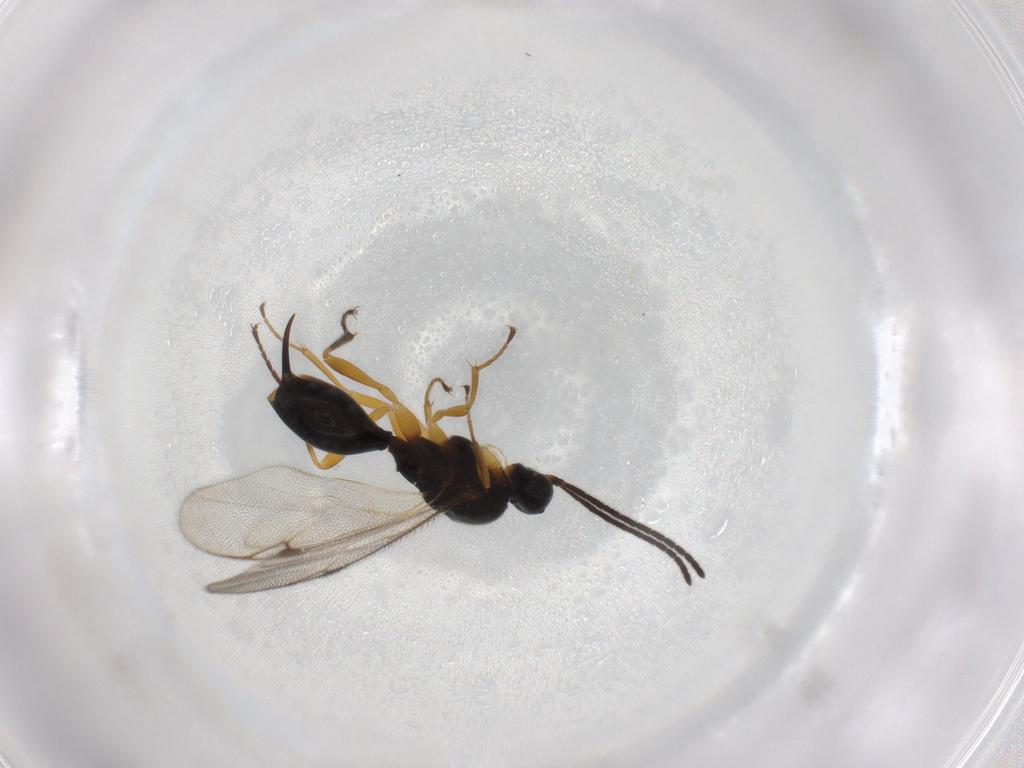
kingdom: Animalia
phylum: Arthropoda
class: Insecta
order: Hymenoptera
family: Proctotrupidae
